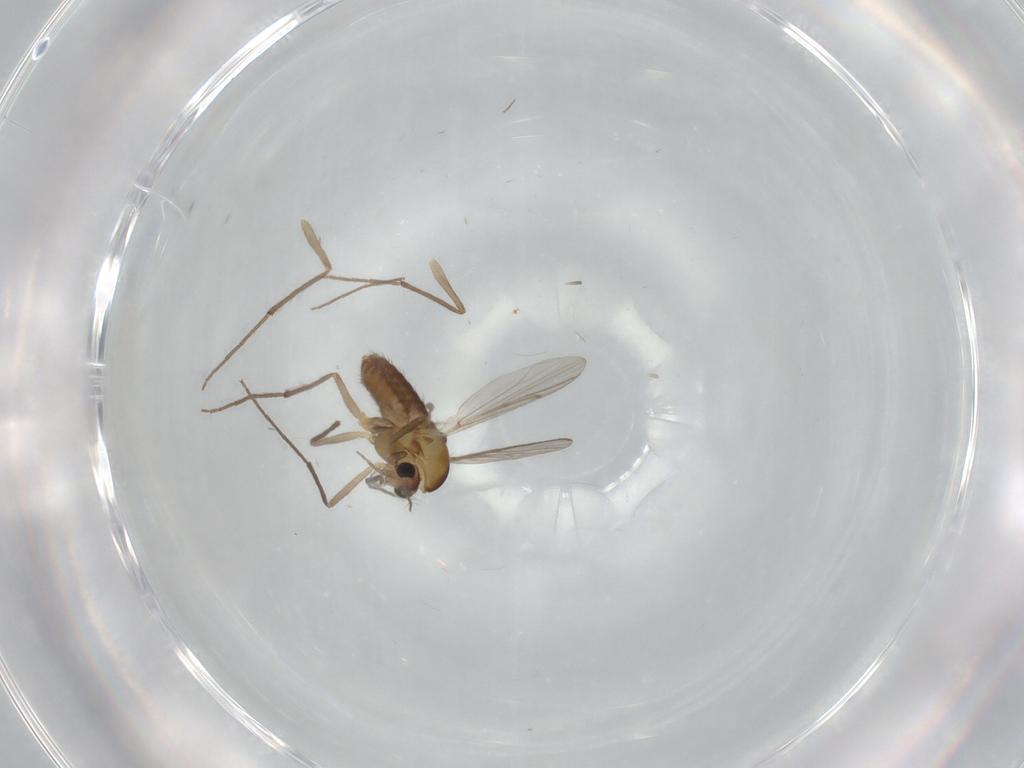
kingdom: Animalia
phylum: Arthropoda
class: Insecta
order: Diptera
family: Chironomidae
